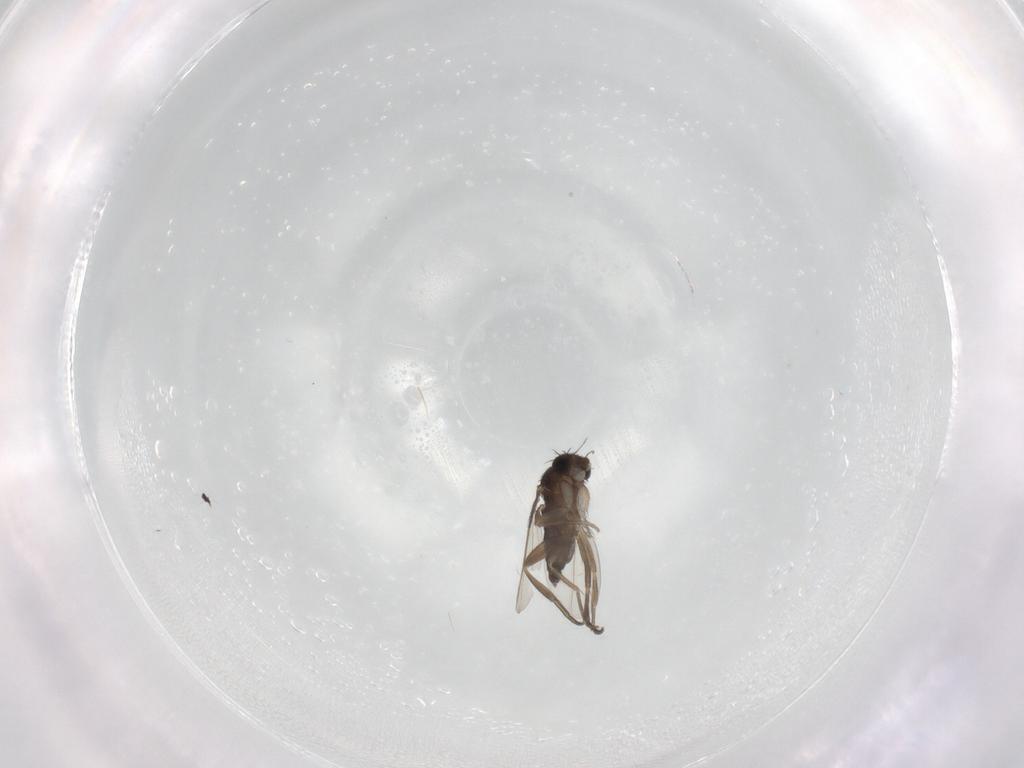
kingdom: Animalia
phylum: Arthropoda
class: Insecta
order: Diptera
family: Phoridae
